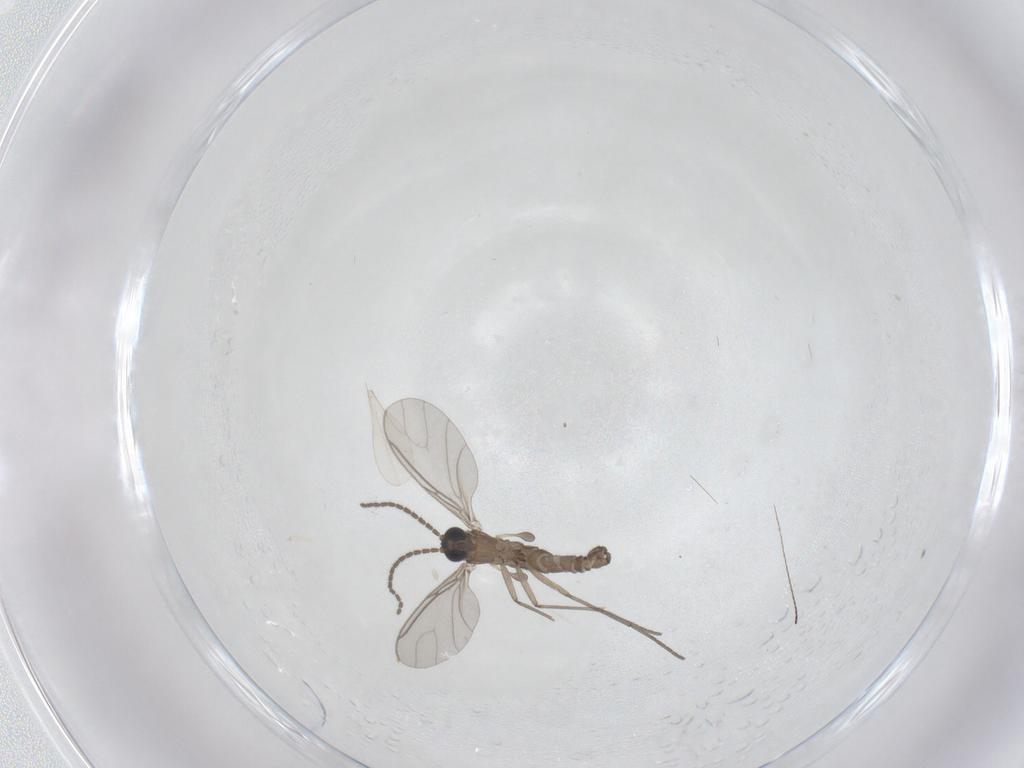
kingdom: Animalia
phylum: Arthropoda
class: Insecta
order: Diptera
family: Sciaridae
